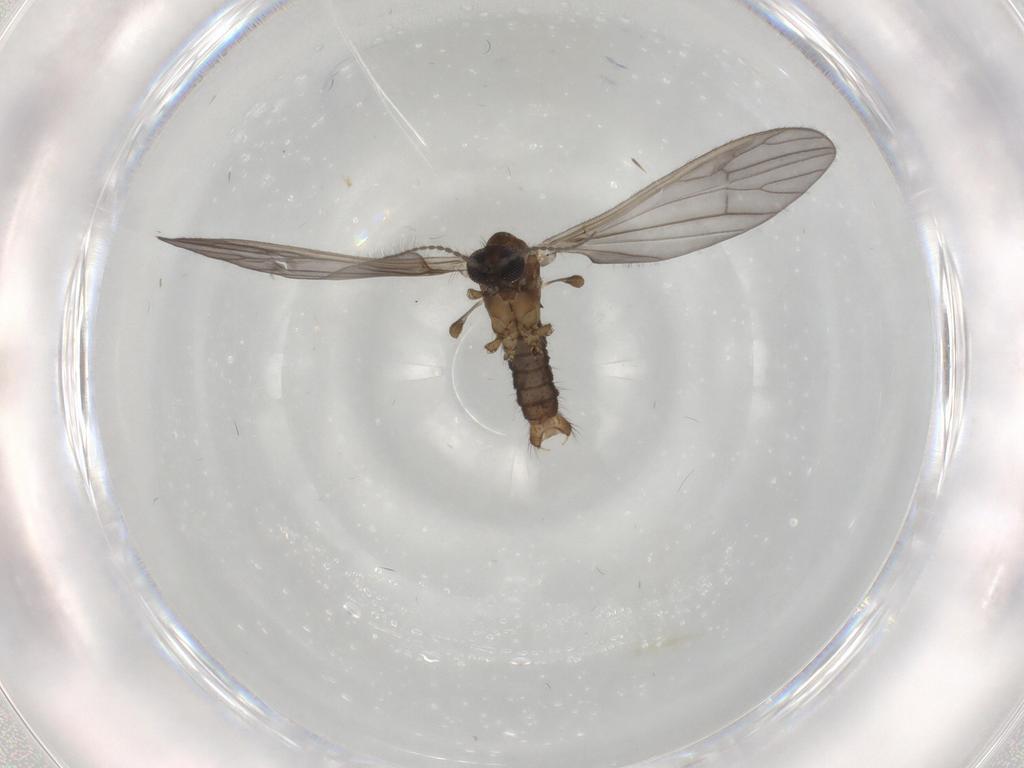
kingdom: Animalia
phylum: Arthropoda
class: Insecta
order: Diptera
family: Limoniidae
